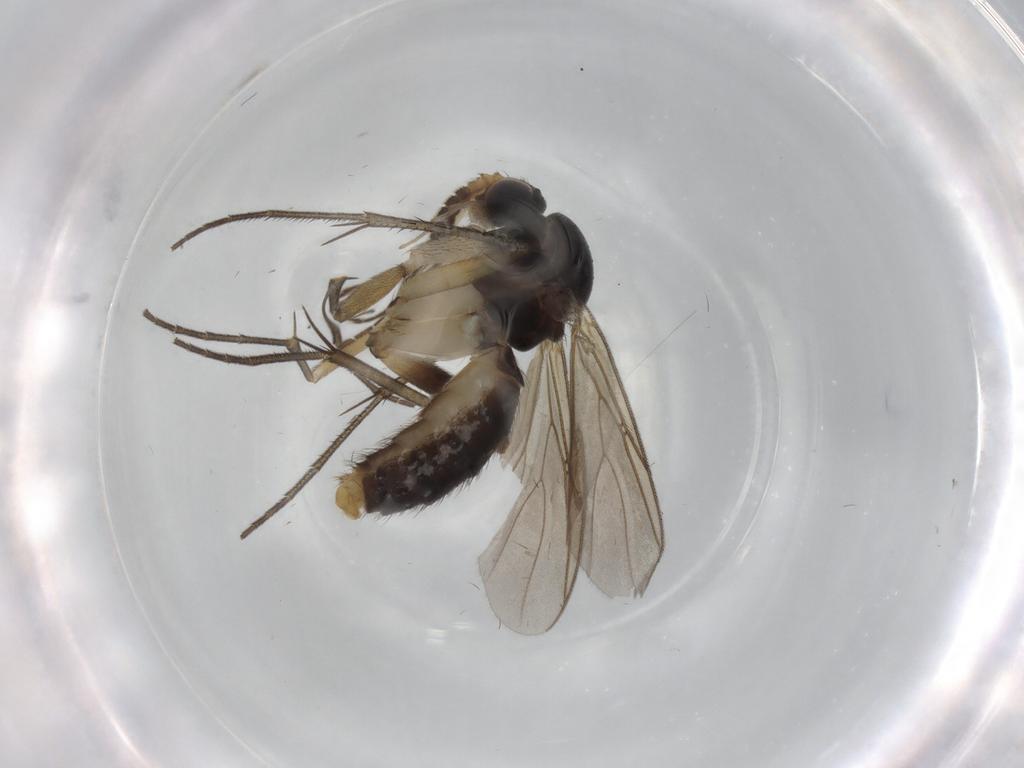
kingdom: Animalia
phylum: Arthropoda
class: Insecta
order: Diptera
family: Mycetophilidae
